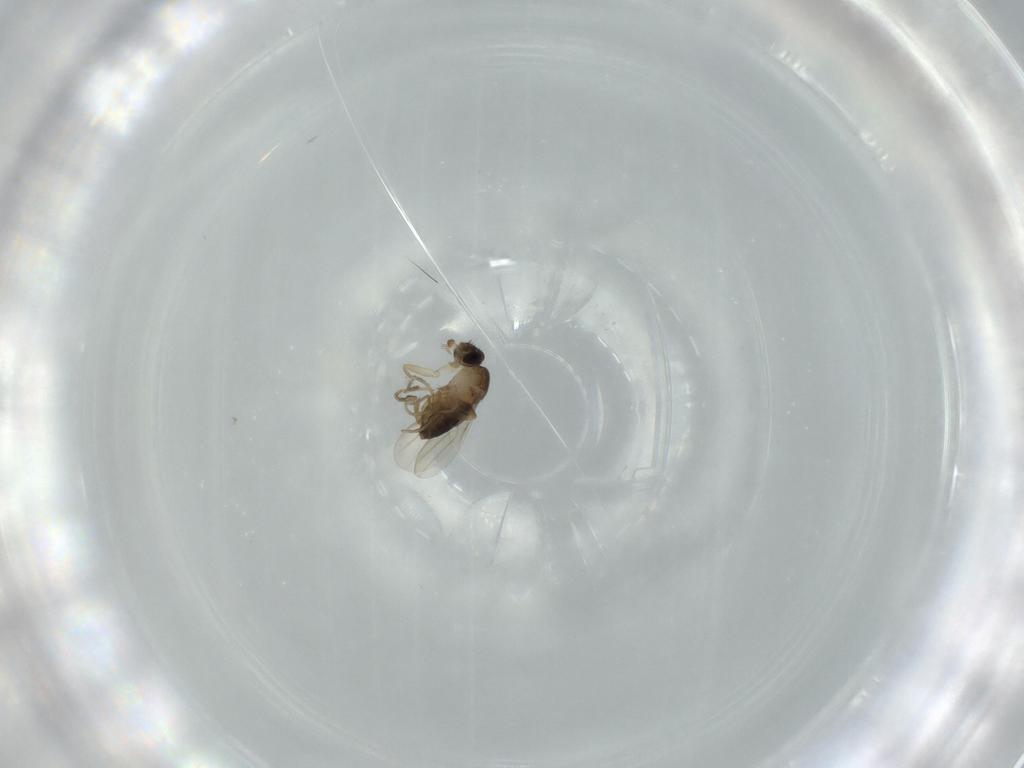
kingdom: Animalia
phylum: Arthropoda
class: Insecta
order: Diptera
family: Phoridae
